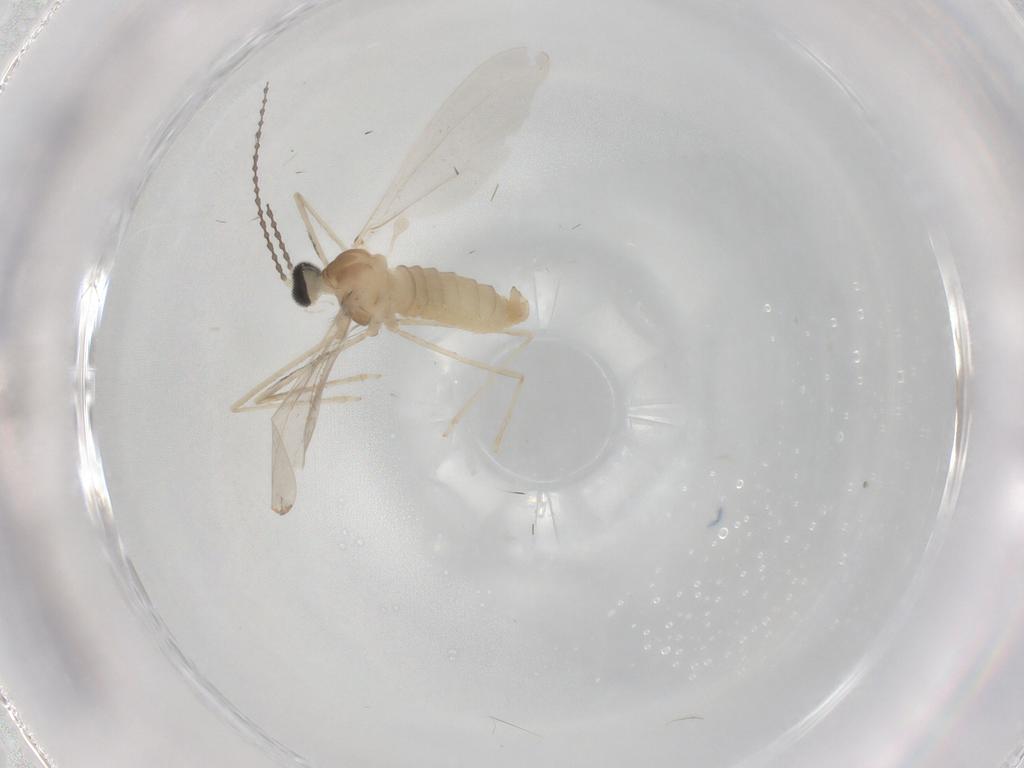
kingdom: Animalia
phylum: Arthropoda
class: Insecta
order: Diptera
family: Cecidomyiidae
